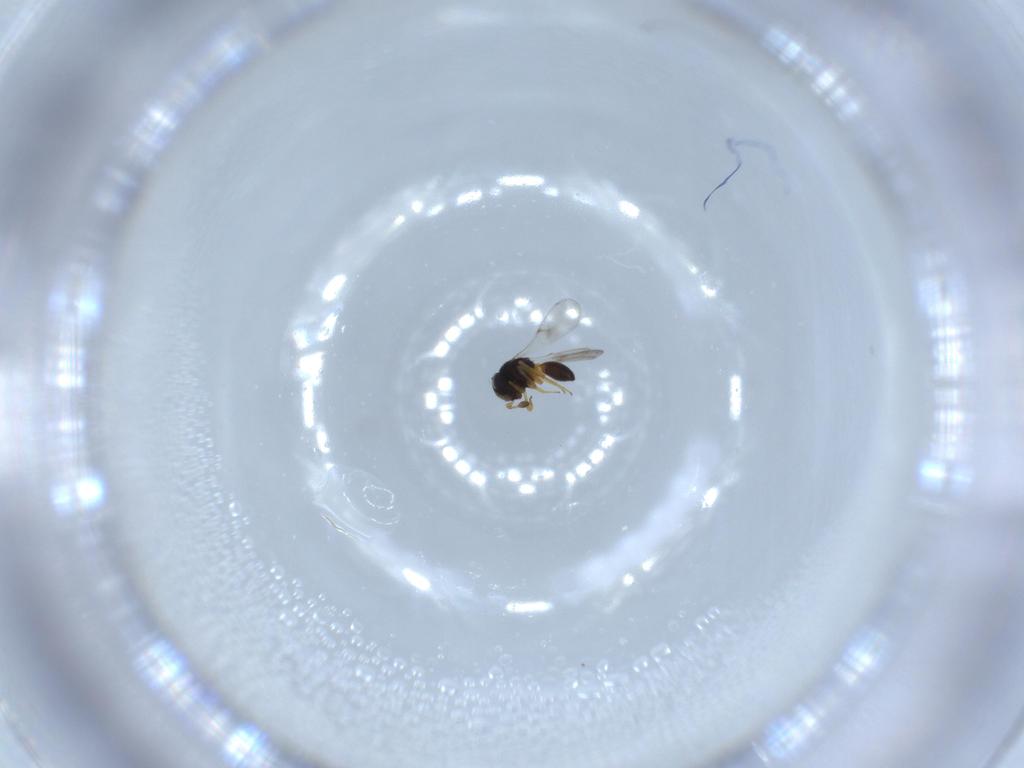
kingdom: Animalia
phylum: Arthropoda
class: Insecta
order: Hymenoptera
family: Scelionidae
